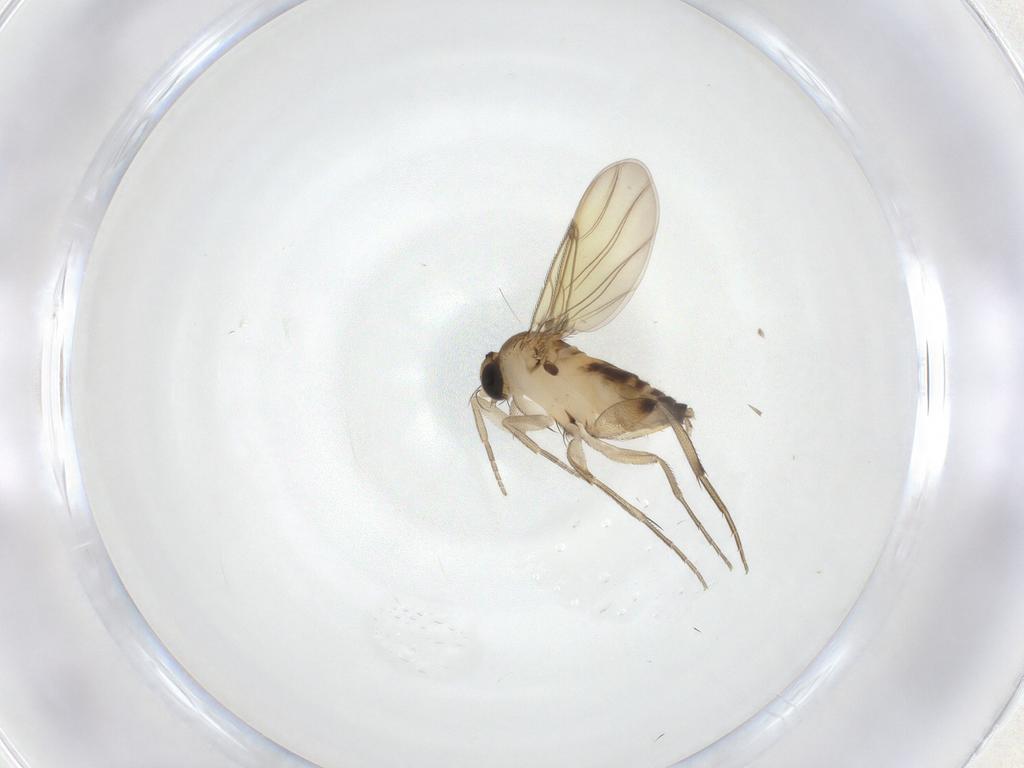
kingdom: Animalia
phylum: Arthropoda
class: Insecta
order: Diptera
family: Phoridae
